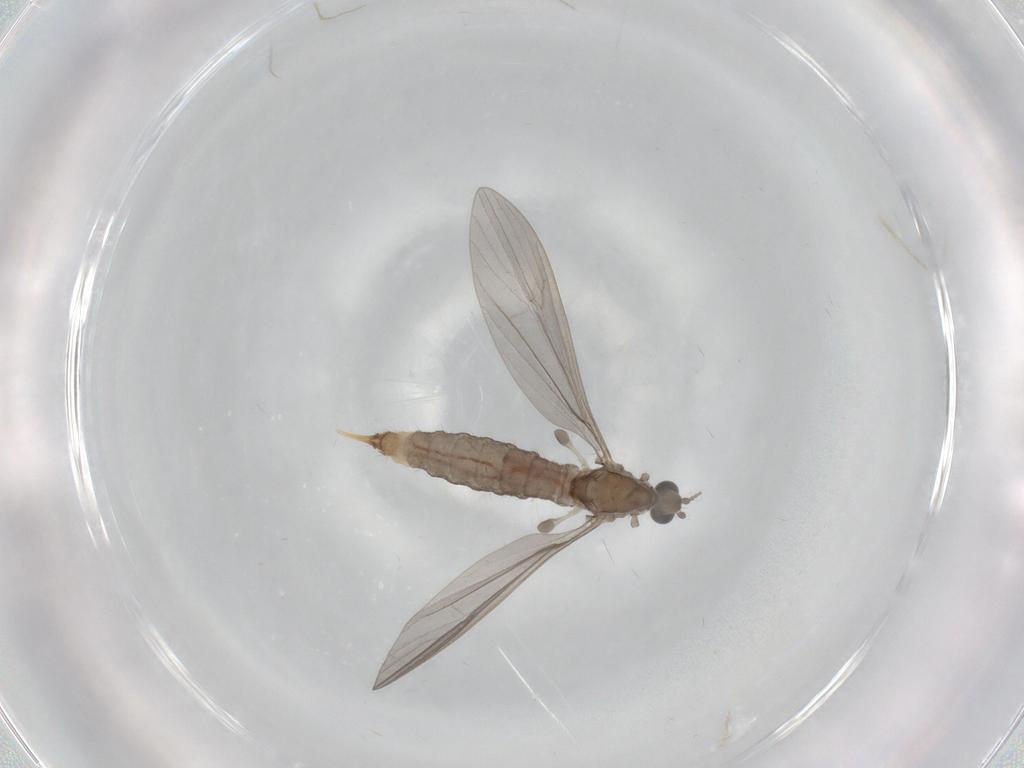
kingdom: Animalia
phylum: Arthropoda
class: Insecta
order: Diptera
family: Limoniidae
